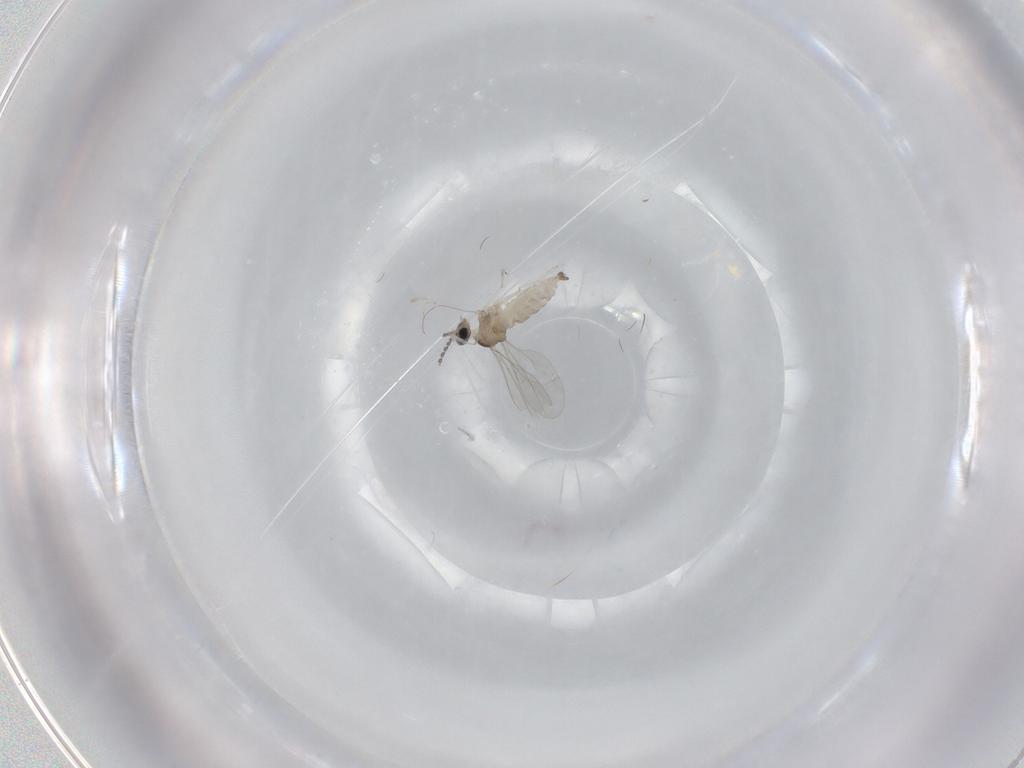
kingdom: Animalia
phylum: Arthropoda
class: Insecta
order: Diptera
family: Cecidomyiidae
